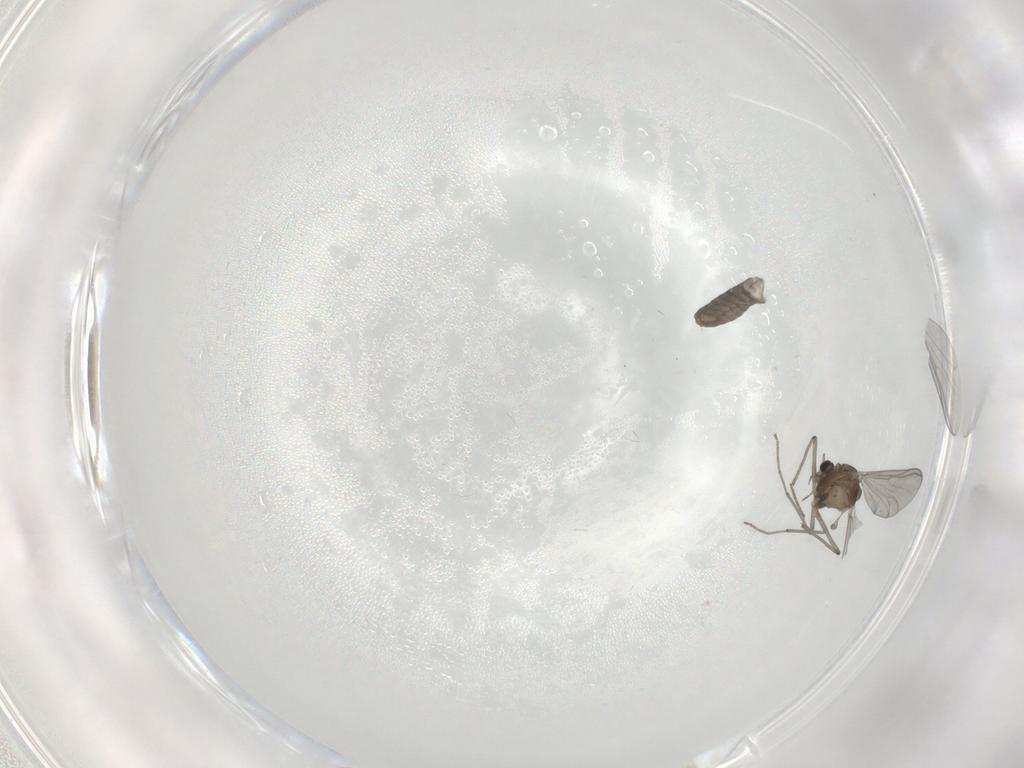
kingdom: Animalia
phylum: Arthropoda
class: Insecta
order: Diptera
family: Chironomidae
